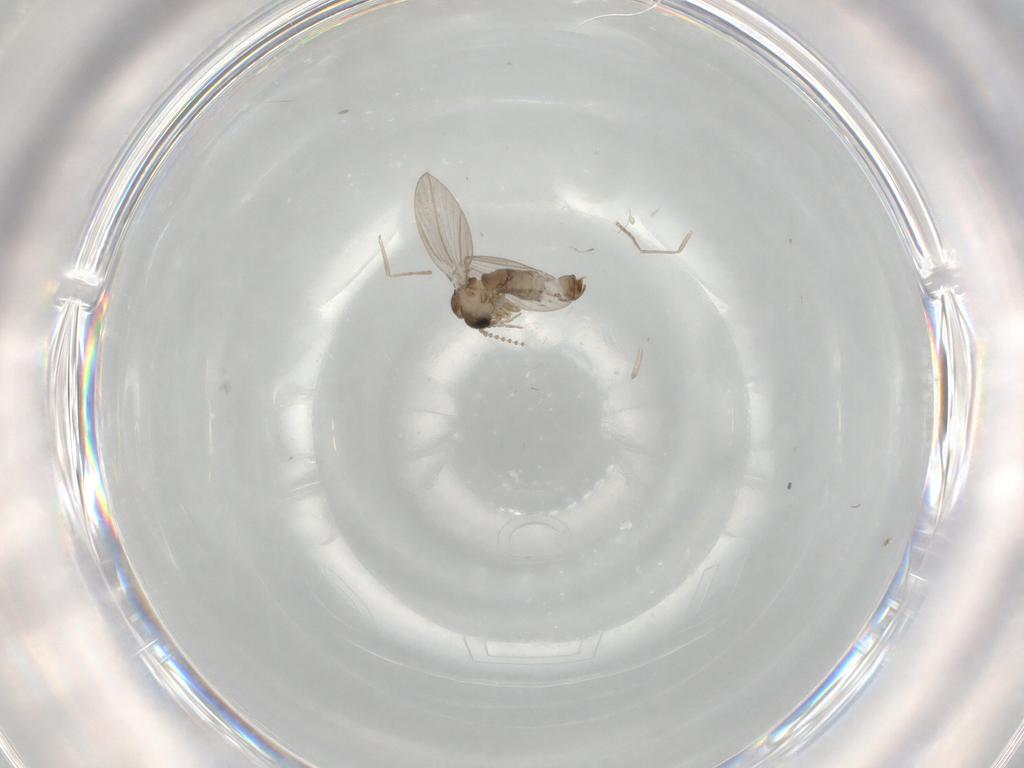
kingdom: Animalia
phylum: Arthropoda
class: Insecta
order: Diptera
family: Psychodidae
